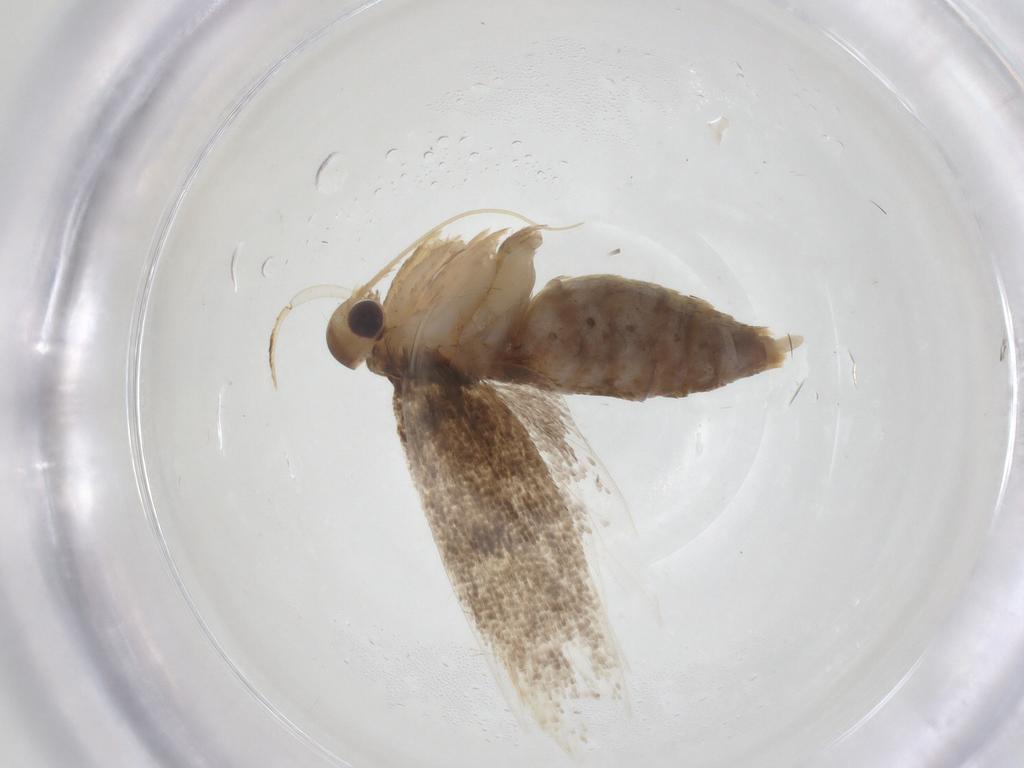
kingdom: Animalia
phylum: Arthropoda
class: Insecta
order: Lepidoptera
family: Lecithoceridae
